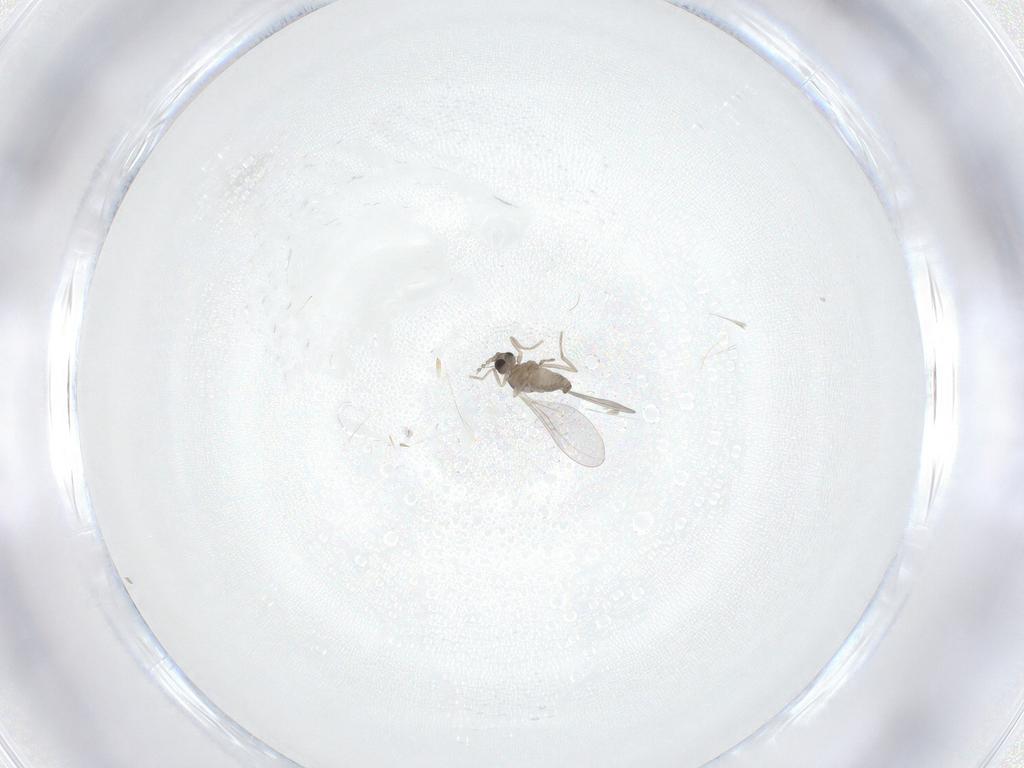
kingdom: Animalia
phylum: Arthropoda
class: Insecta
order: Diptera
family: Cecidomyiidae
